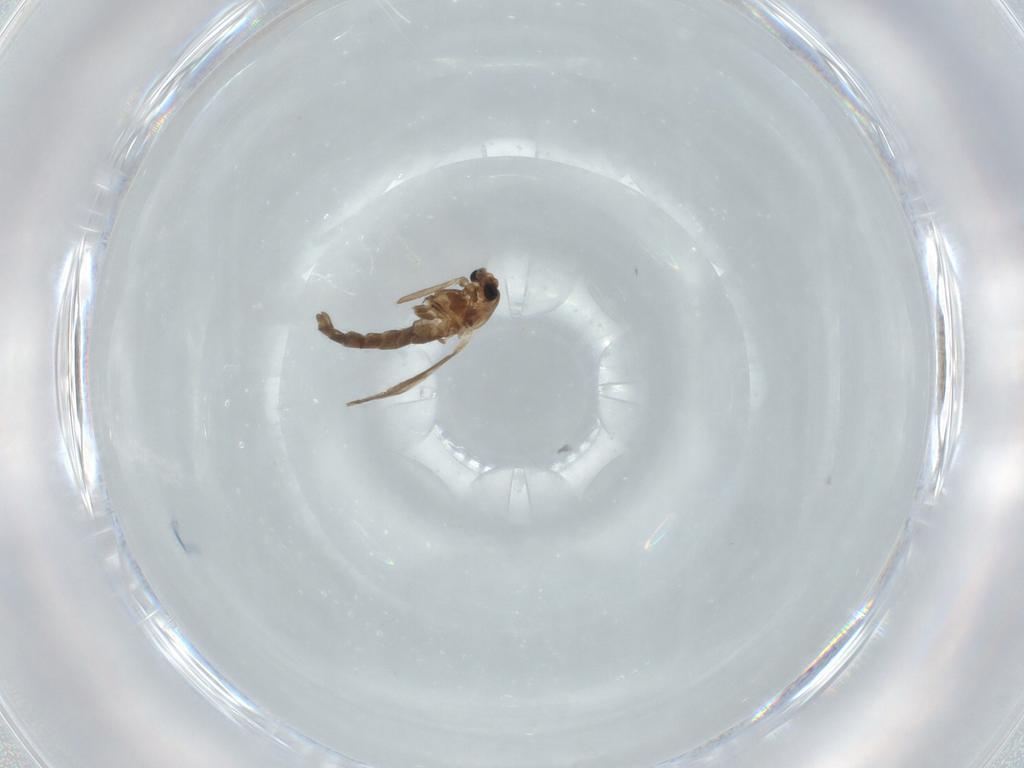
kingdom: Animalia
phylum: Arthropoda
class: Insecta
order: Diptera
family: Chironomidae
